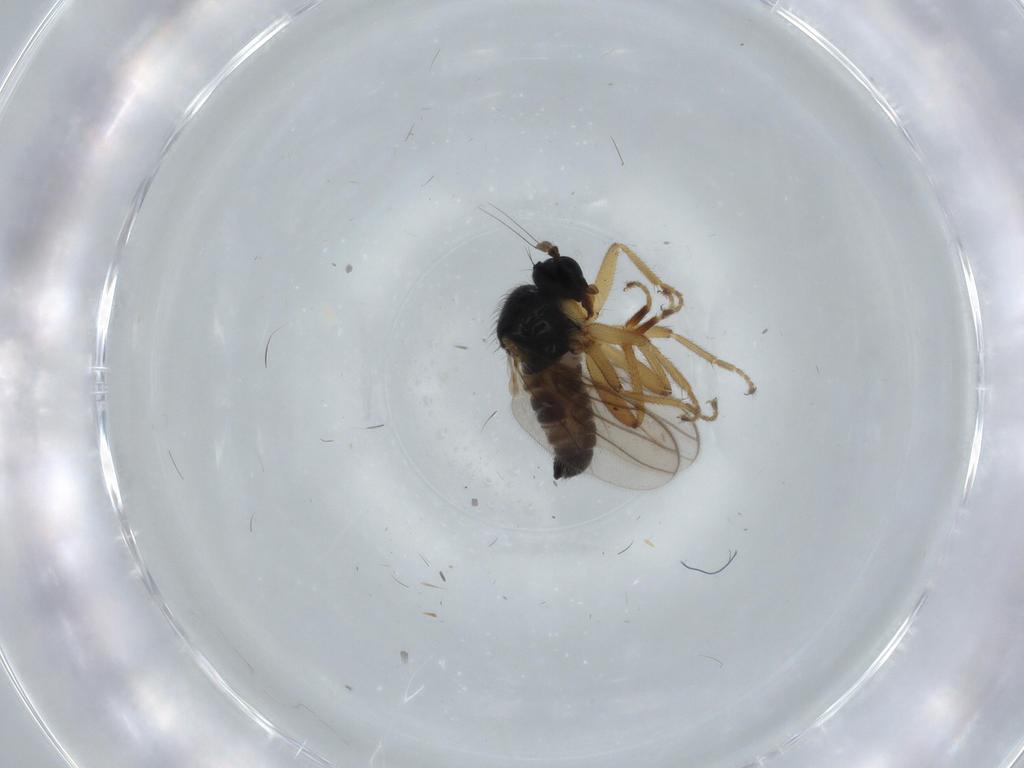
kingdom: Animalia
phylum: Arthropoda
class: Insecta
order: Diptera
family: Hybotidae
